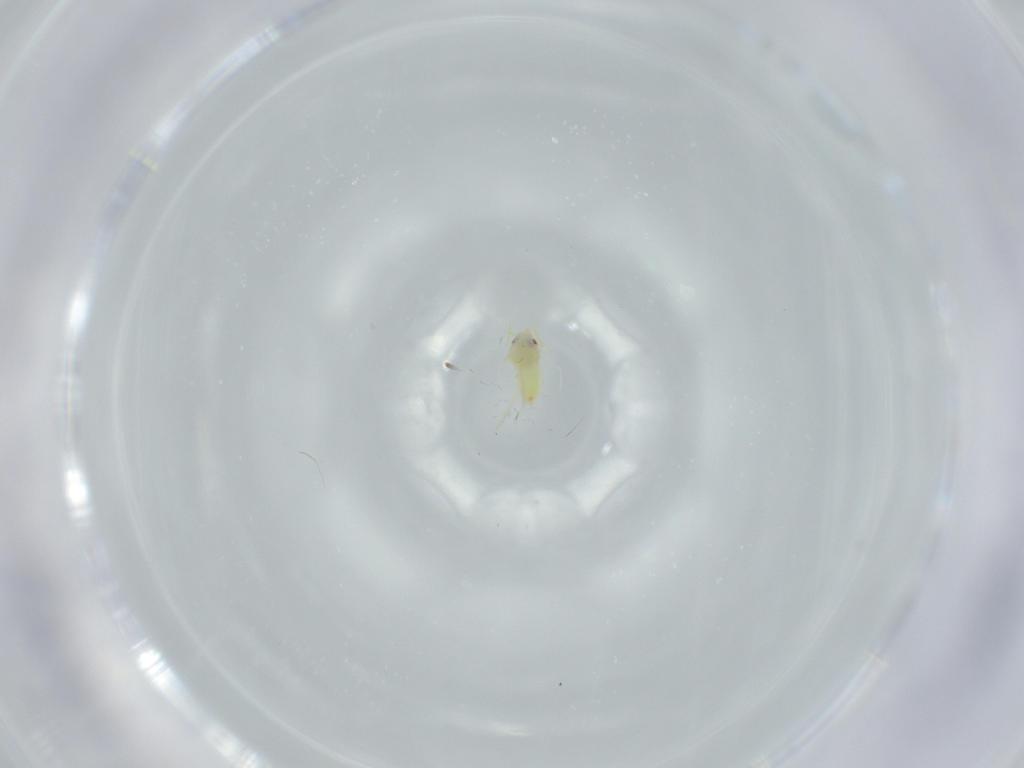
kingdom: Animalia
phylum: Arthropoda
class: Insecta
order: Hemiptera
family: Aleyrodidae
